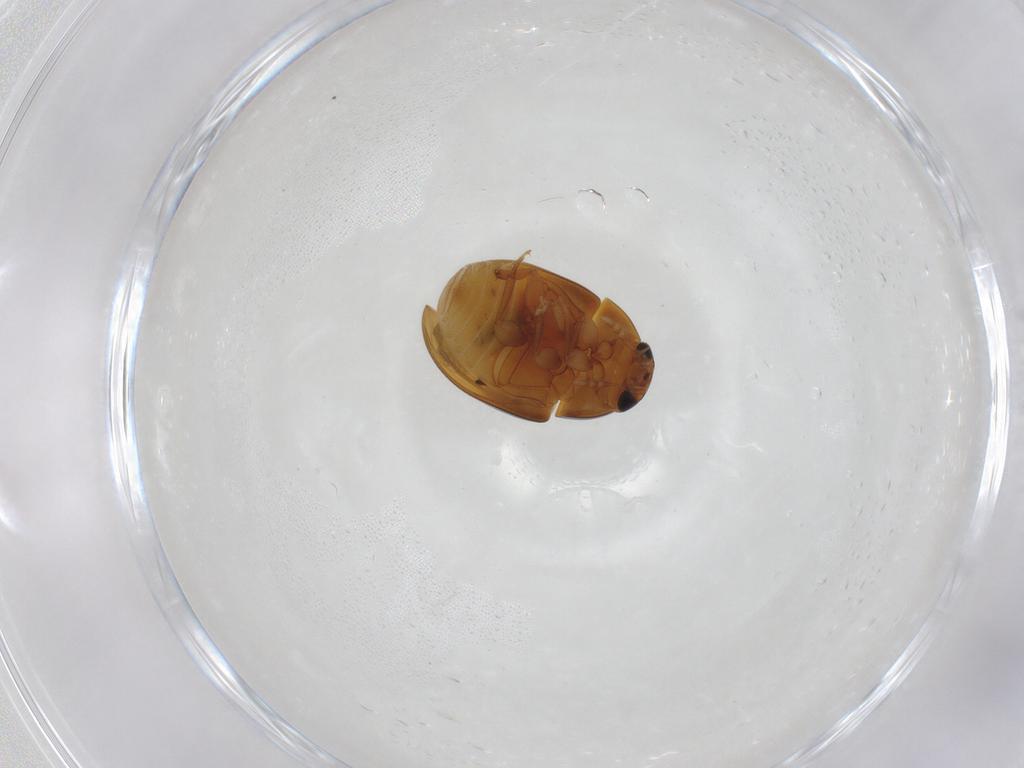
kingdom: Animalia
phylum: Arthropoda
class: Insecta
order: Coleoptera
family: Phalacridae
